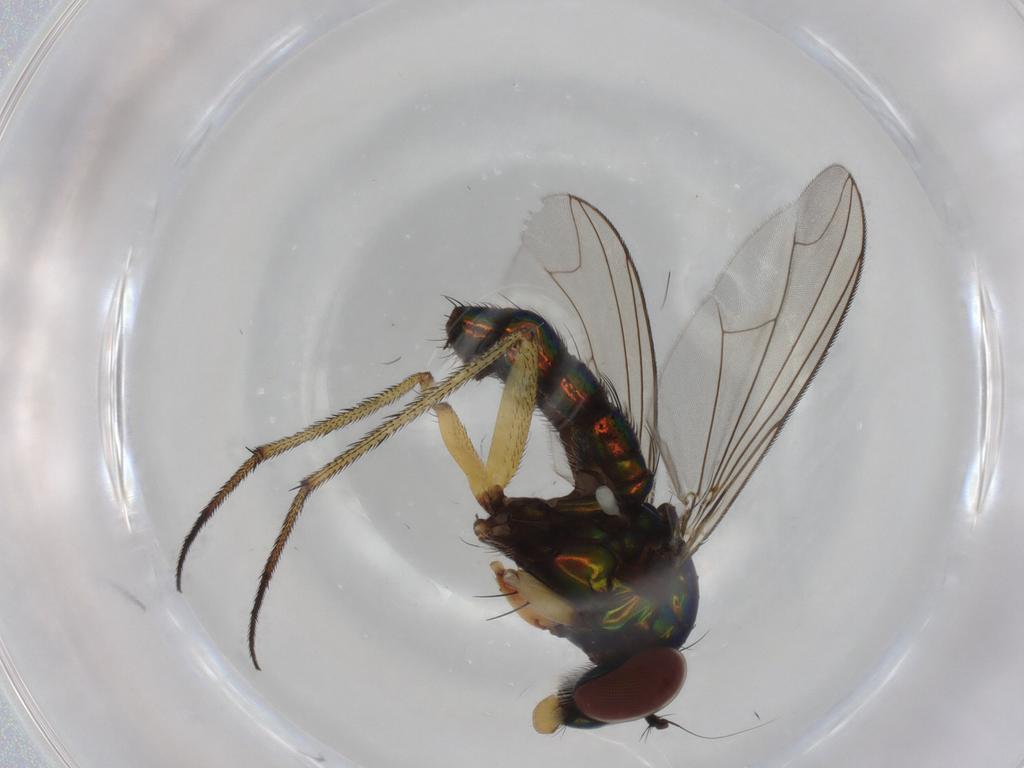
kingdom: Animalia
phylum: Arthropoda
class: Insecta
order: Diptera
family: Dolichopodidae
